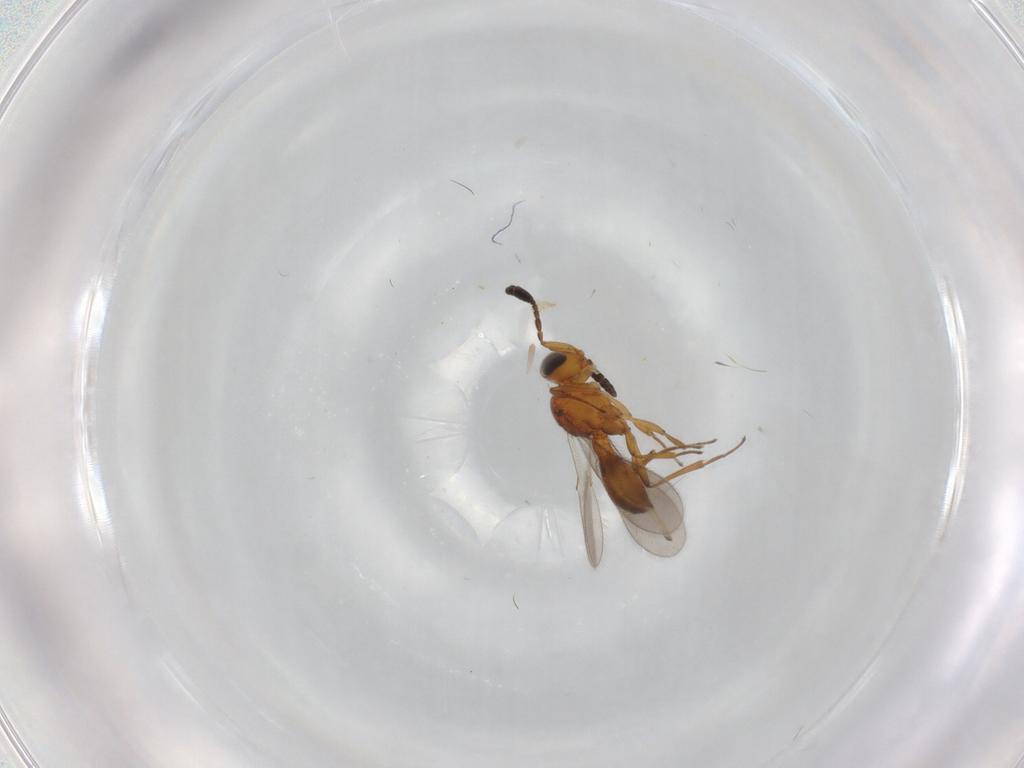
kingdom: Animalia
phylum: Arthropoda
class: Insecta
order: Hymenoptera
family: Scelionidae
